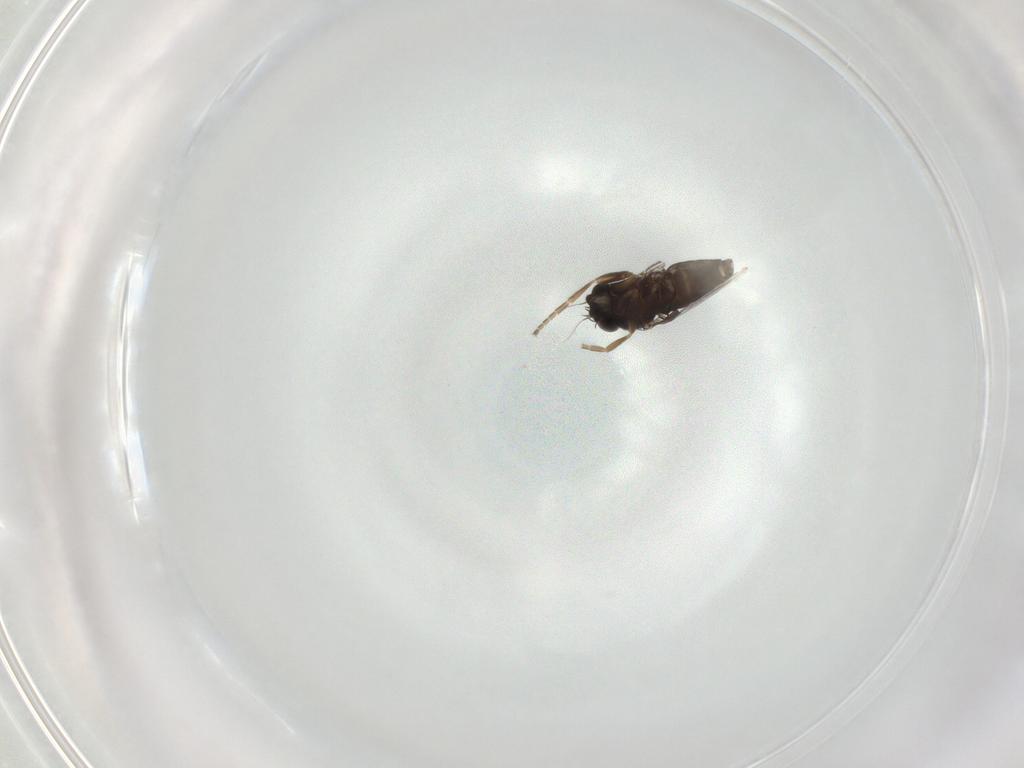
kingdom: Animalia
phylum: Arthropoda
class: Insecta
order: Diptera
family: Phoridae
